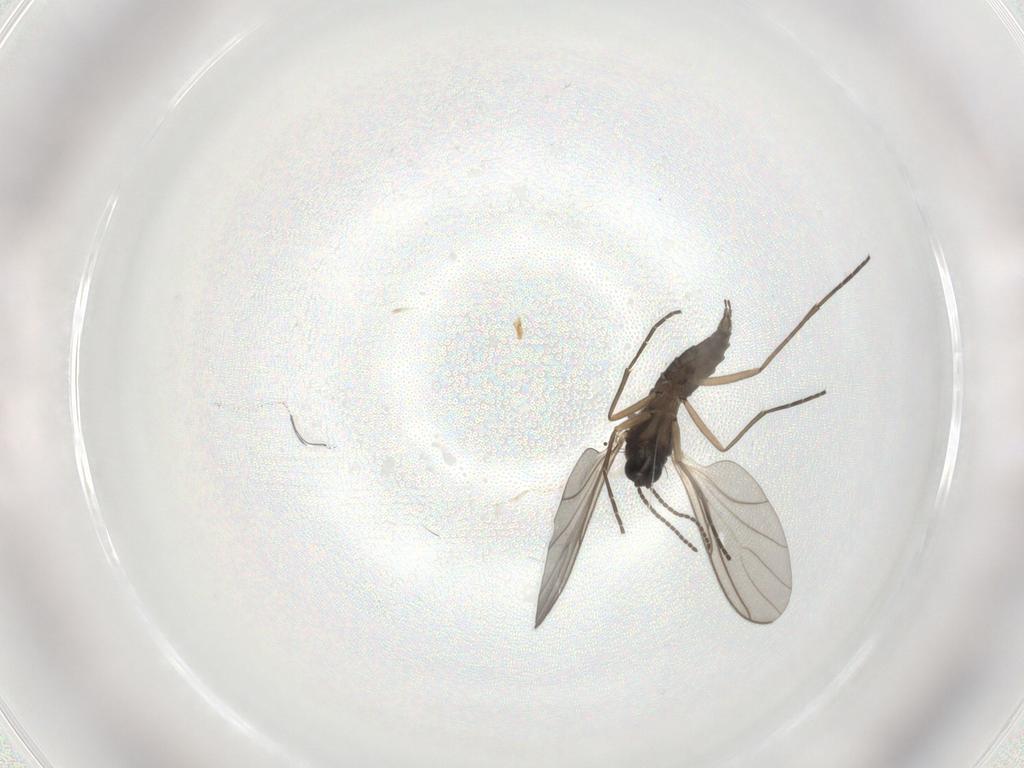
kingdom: Animalia
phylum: Arthropoda
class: Insecta
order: Diptera
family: Sciaridae
